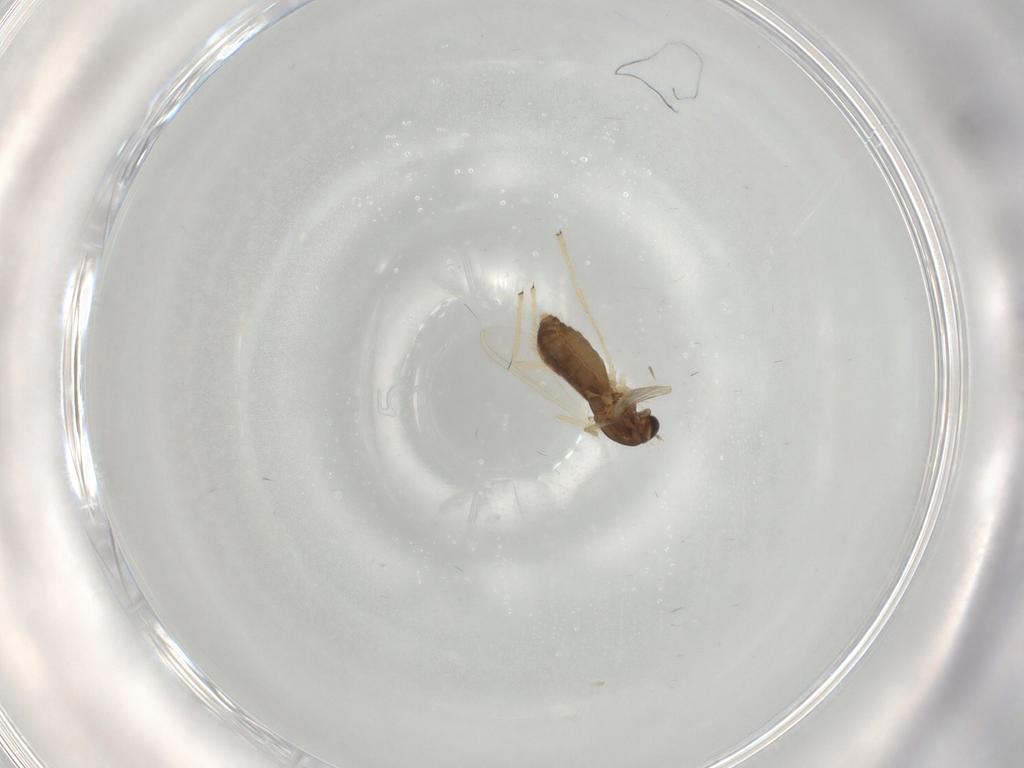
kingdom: Animalia
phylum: Arthropoda
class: Insecta
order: Diptera
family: Chironomidae
